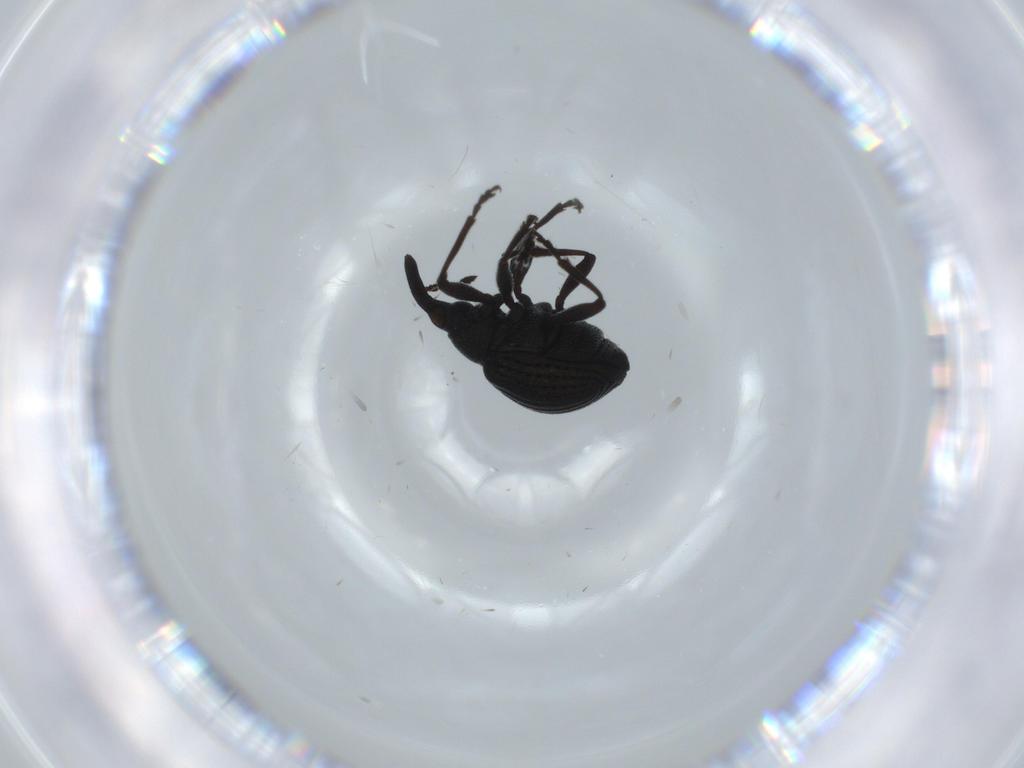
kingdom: Animalia
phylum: Arthropoda
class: Insecta
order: Coleoptera
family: Brentidae
